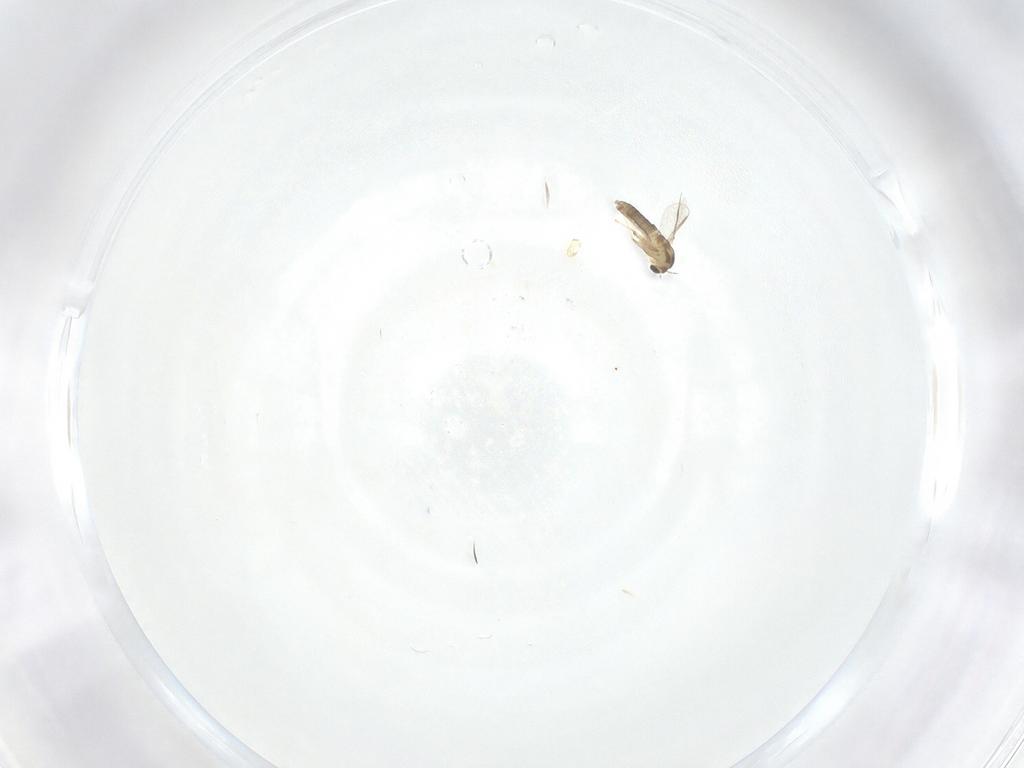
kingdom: Animalia
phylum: Arthropoda
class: Insecta
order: Diptera
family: Chironomidae
